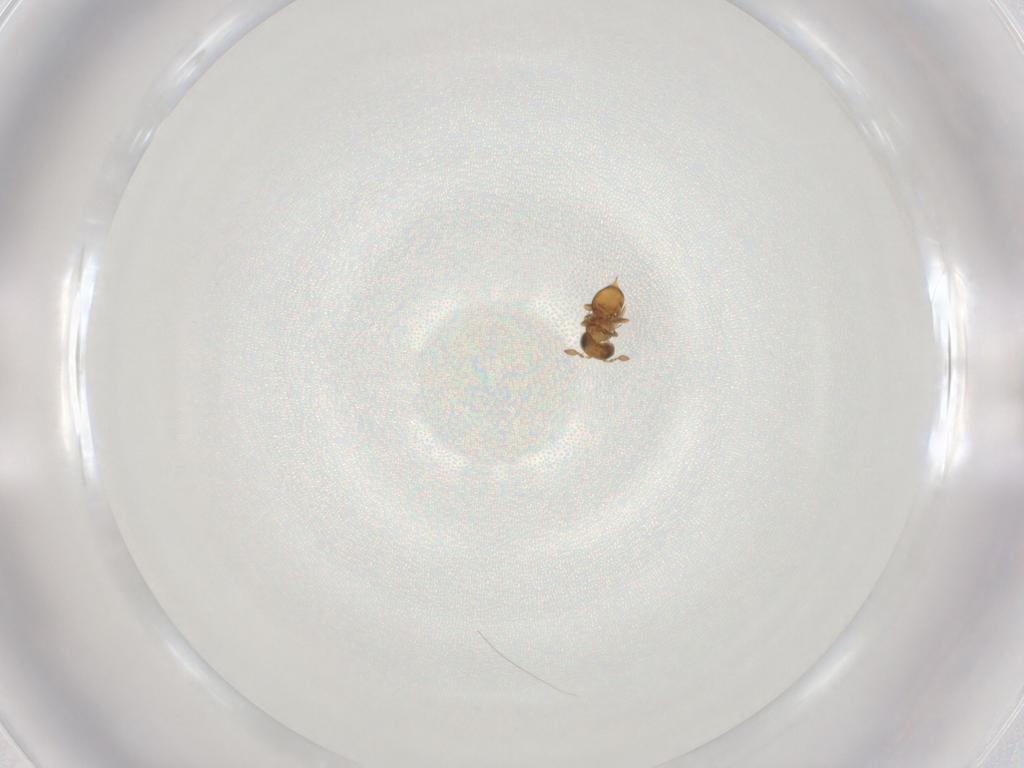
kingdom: Animalia
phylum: Arthropoda
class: Insecta
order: Hymenoptera
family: Scelionidae
